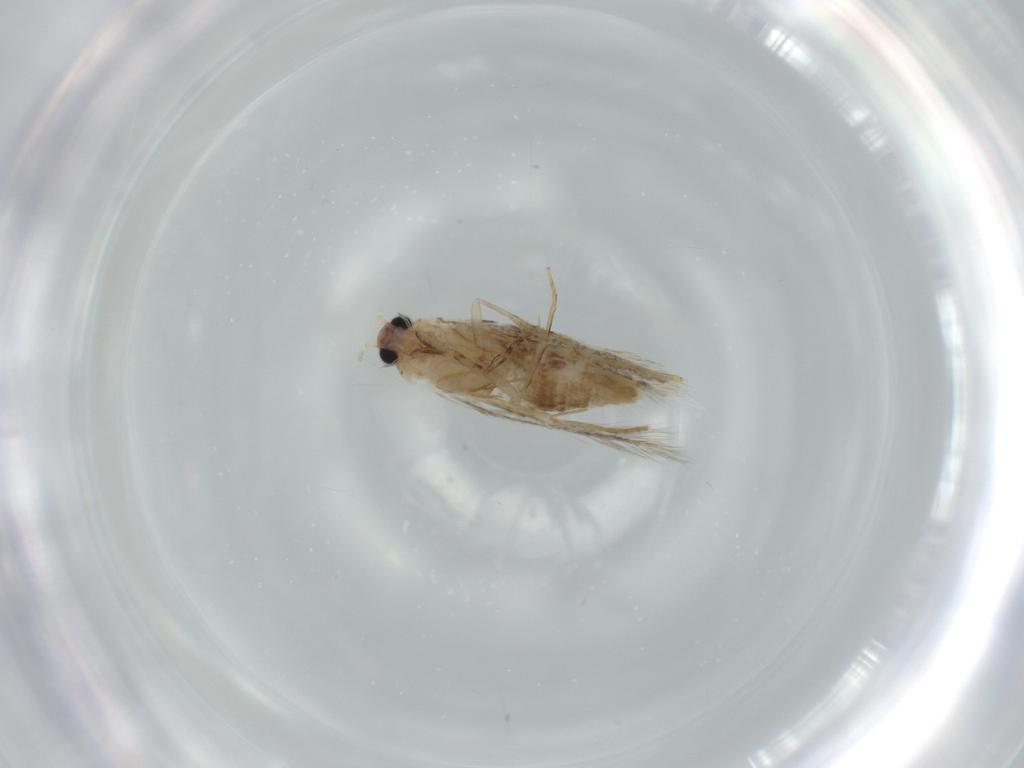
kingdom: Animalia
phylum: Arthropoda
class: Insecta
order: Lepidoptera
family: Tineidae
